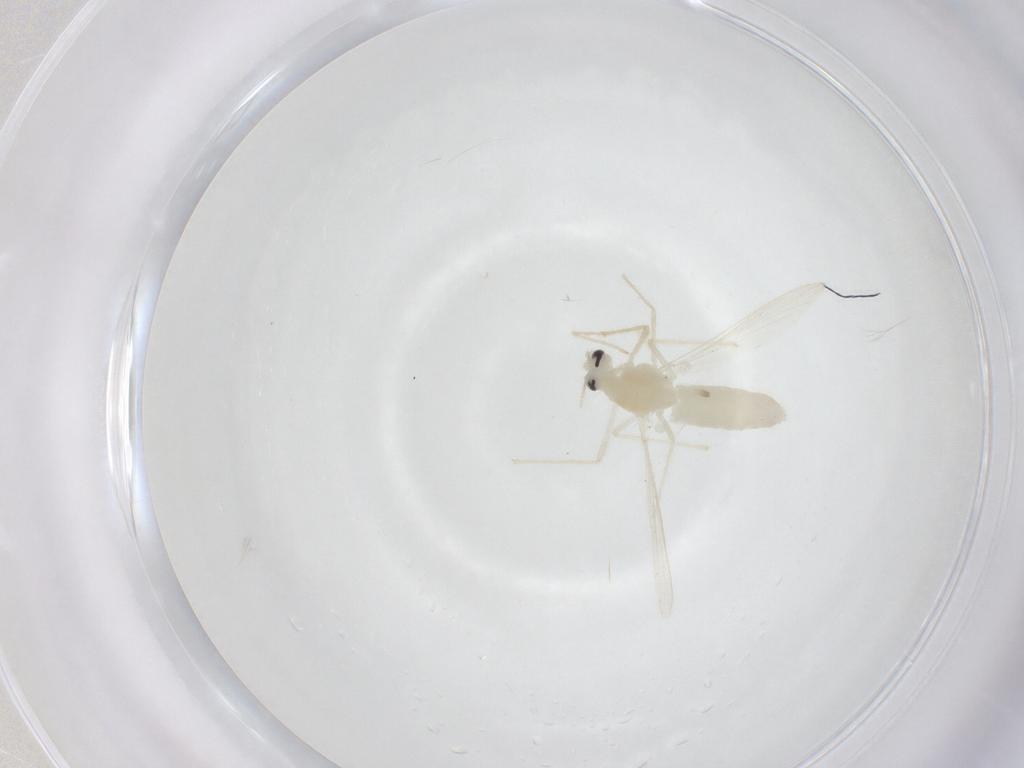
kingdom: Animalia
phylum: Arthropoda
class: Insecta
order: Diptera
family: Chironomidae
